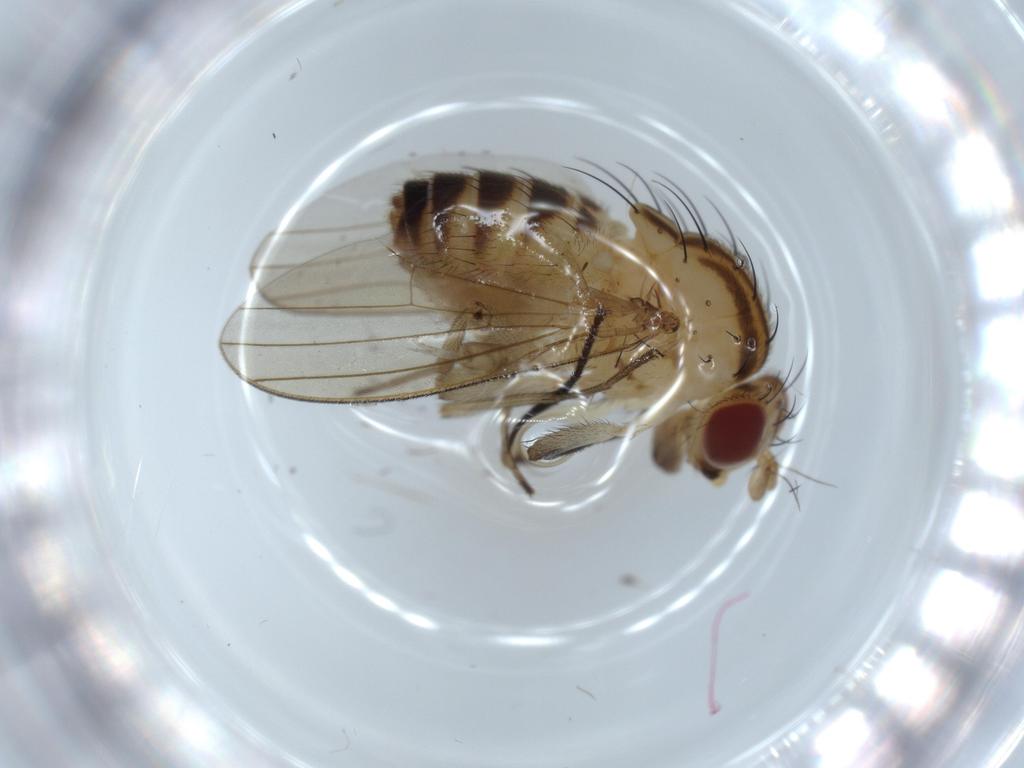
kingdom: Animalia
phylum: Arthropoda
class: Insecta
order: Diptera
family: Lauxaniidae
